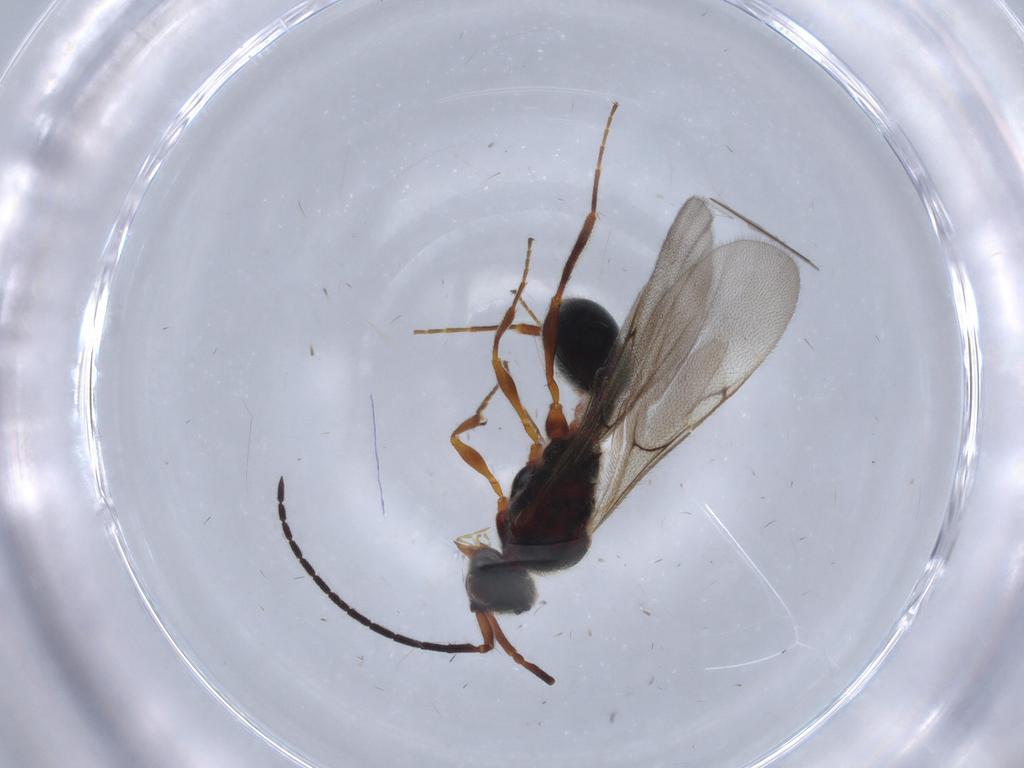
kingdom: Animalia
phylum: Arthropoda
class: Insecta
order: Hymenoptera
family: Diapriidae
